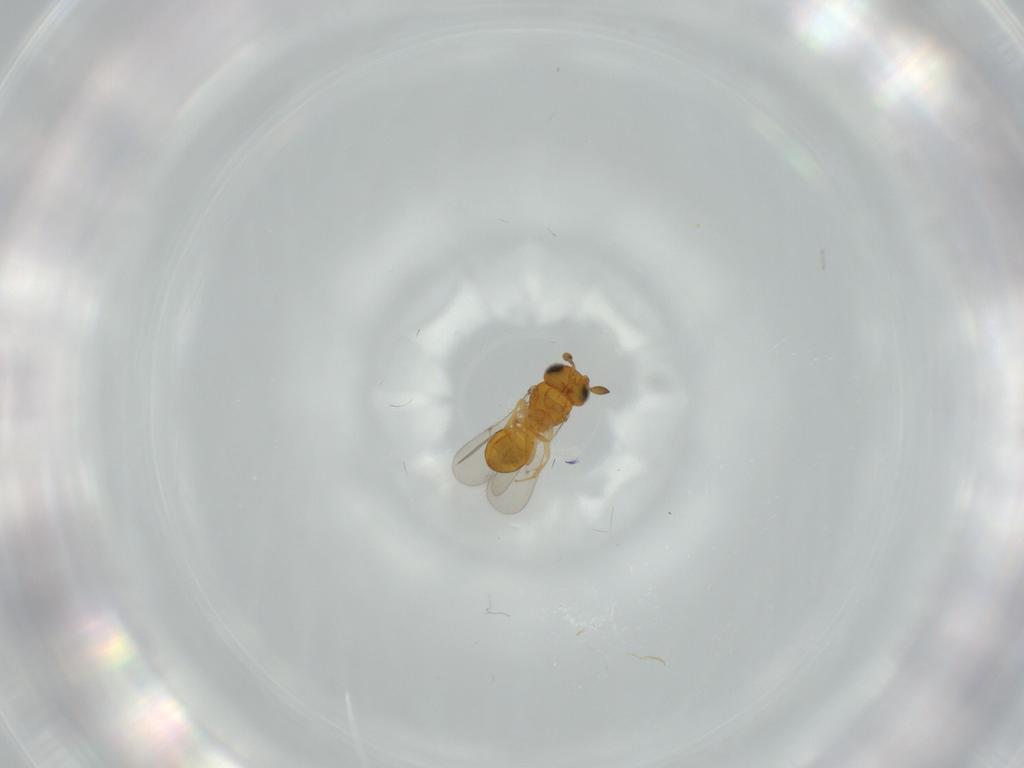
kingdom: Animalia
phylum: Arthropoda
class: Insecta
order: Hymenoptera
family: Scelionidae
